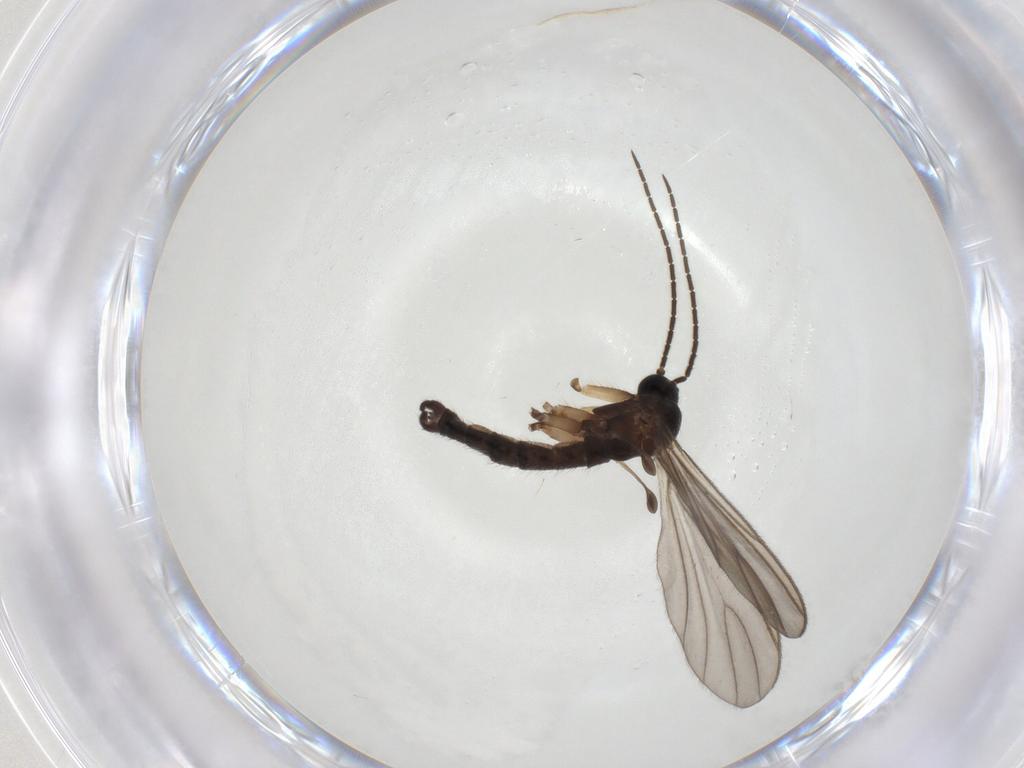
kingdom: Animalia
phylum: Arthropoda
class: Insecta
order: Diptera
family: Sciaridae
